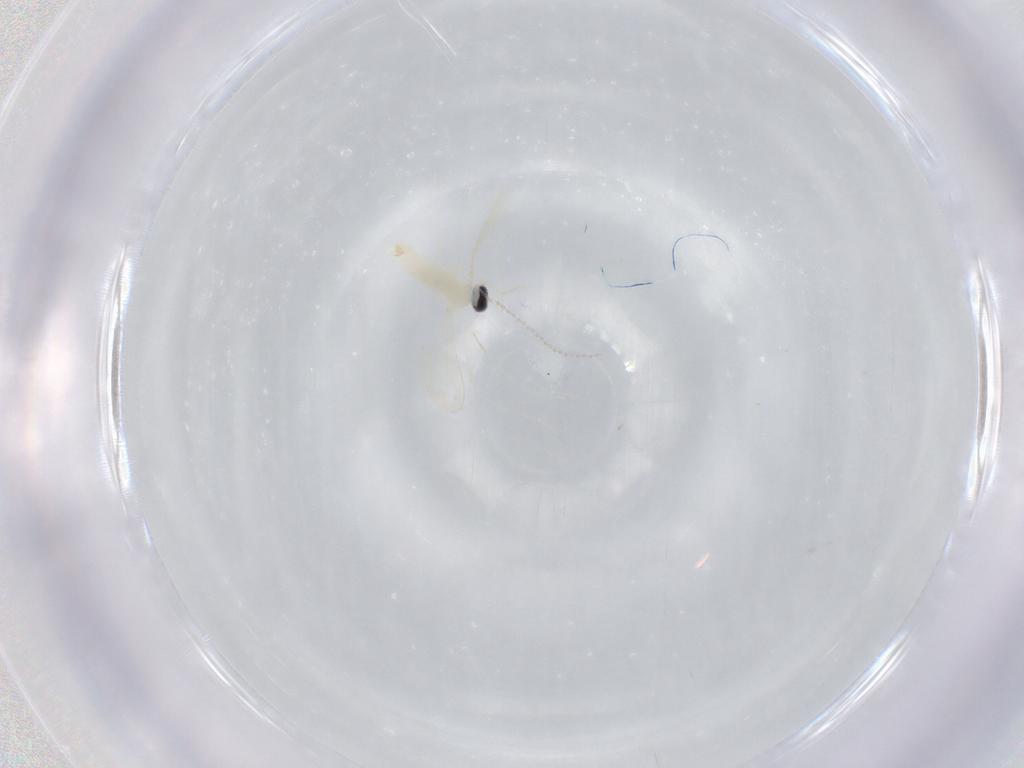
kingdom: Animalia
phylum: Arthropoda
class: Insecta
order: Diptera
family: Cecidomyiidae
